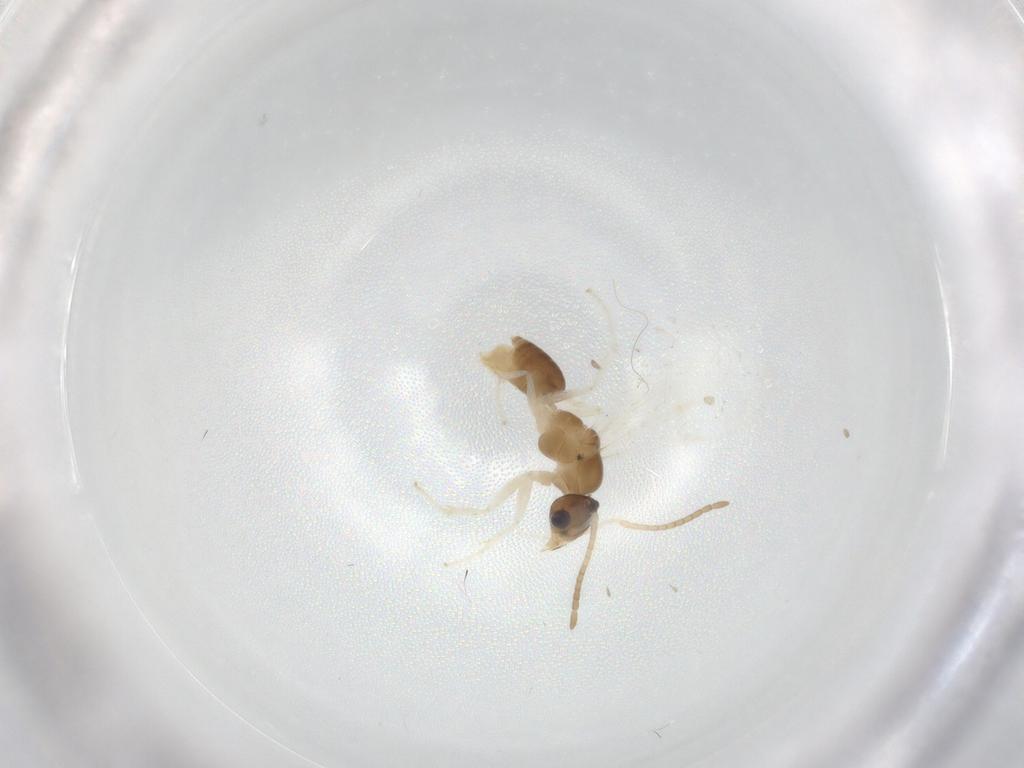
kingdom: Animalia
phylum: Arthropoda
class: Insecta
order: Hymenoptera
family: Formicidae
